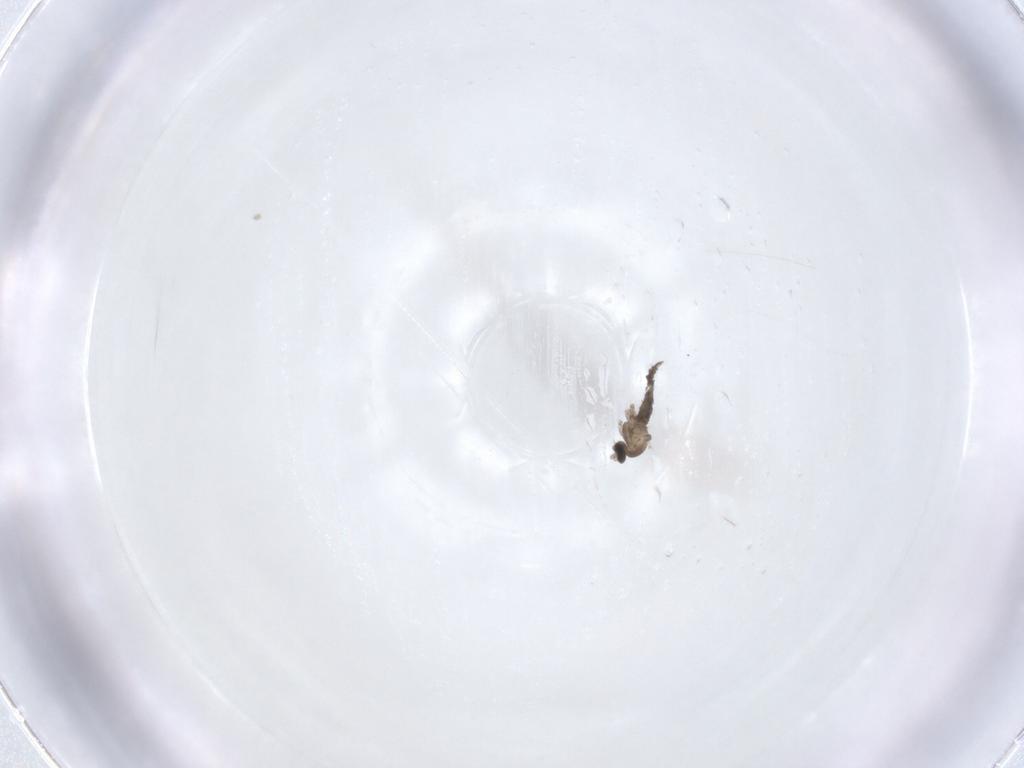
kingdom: Animalia
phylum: Arthropoda
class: Insecta
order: Diptera
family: Cecidomyiidae
